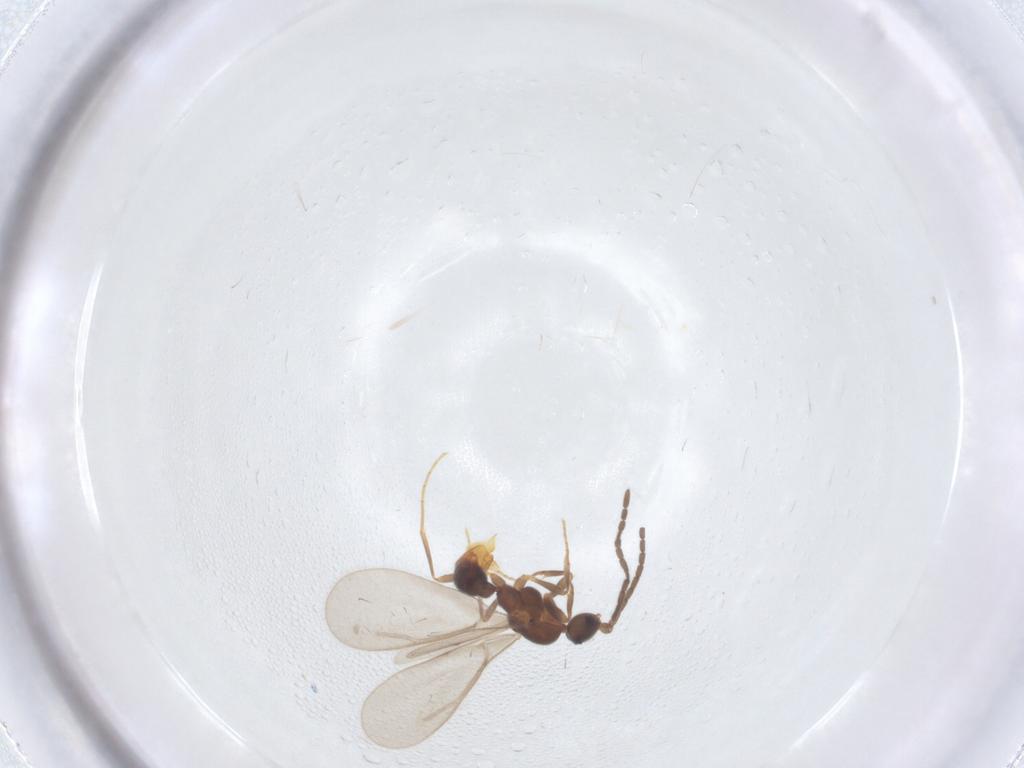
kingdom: Animalia
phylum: Arthropoda
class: Insecta
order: Hymenoptera
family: Formicidae
